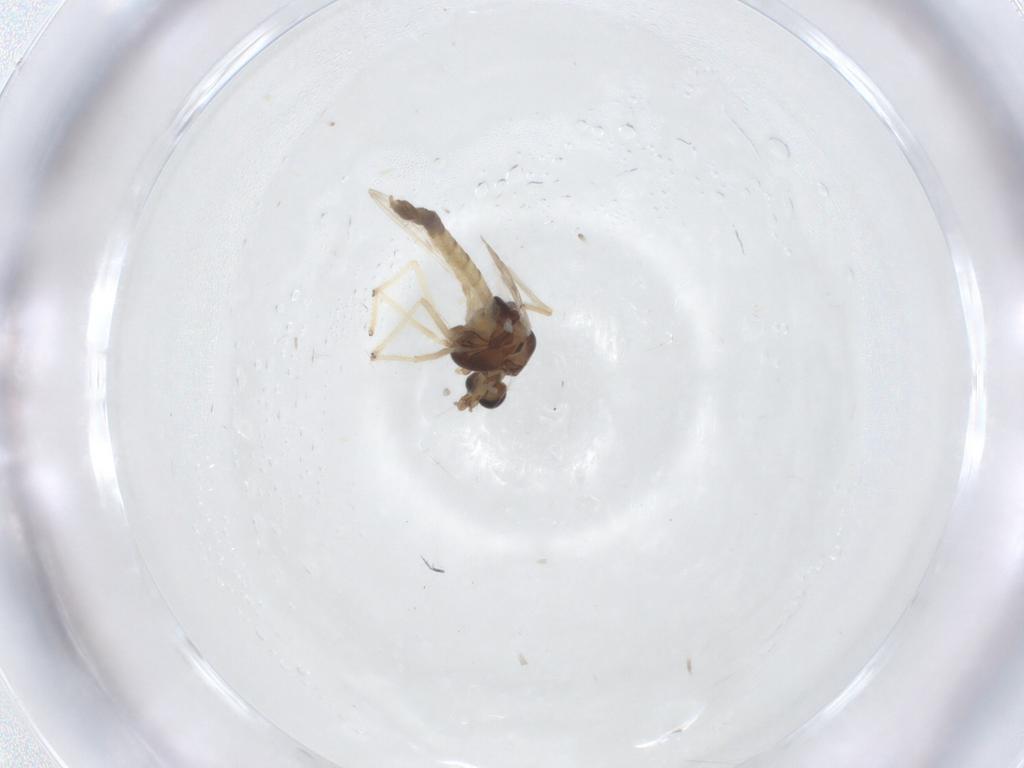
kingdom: Animalia
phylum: Arthropoda
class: Insecta
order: Diptera
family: Chironomidae
